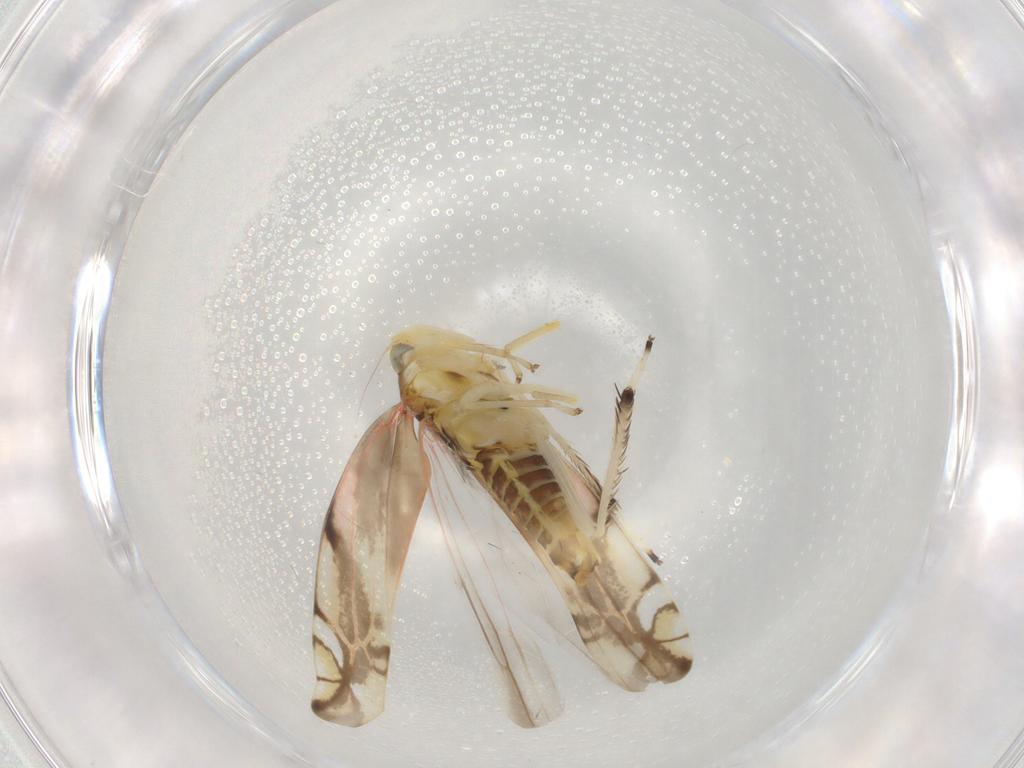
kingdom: Animalia
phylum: Arthropoda
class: Insecta
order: Hemiptera
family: Cicadellidae
